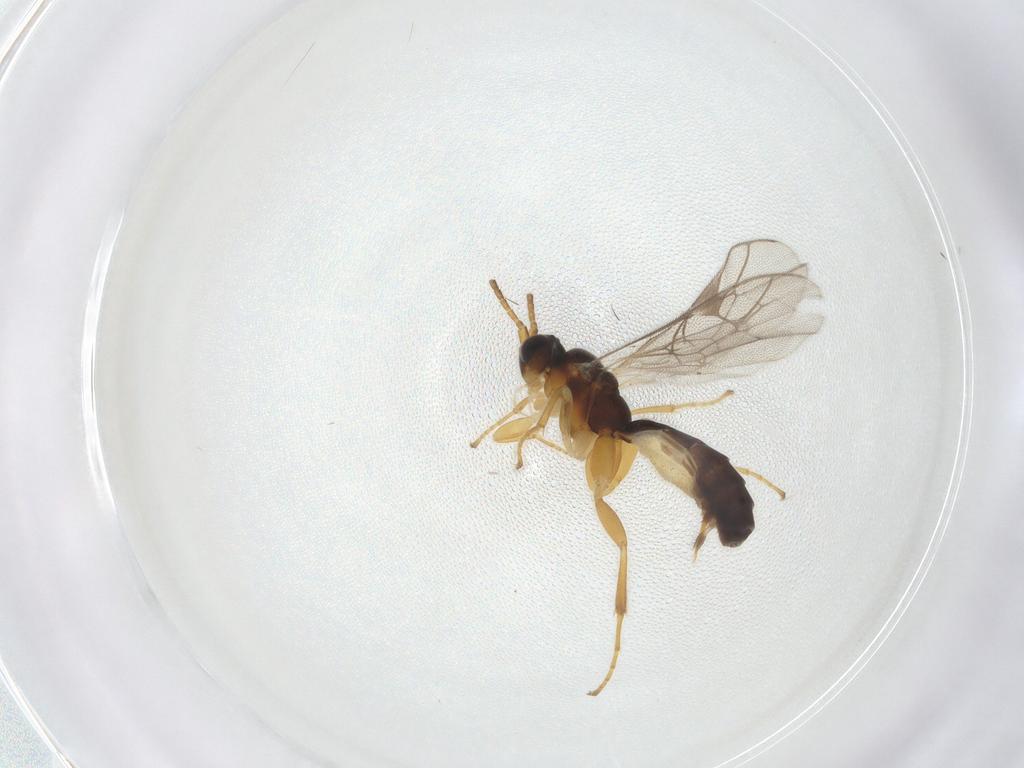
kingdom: Animalia
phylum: Arthropoda
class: Insecta
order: Hymenoptera
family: Ichneumonidae
